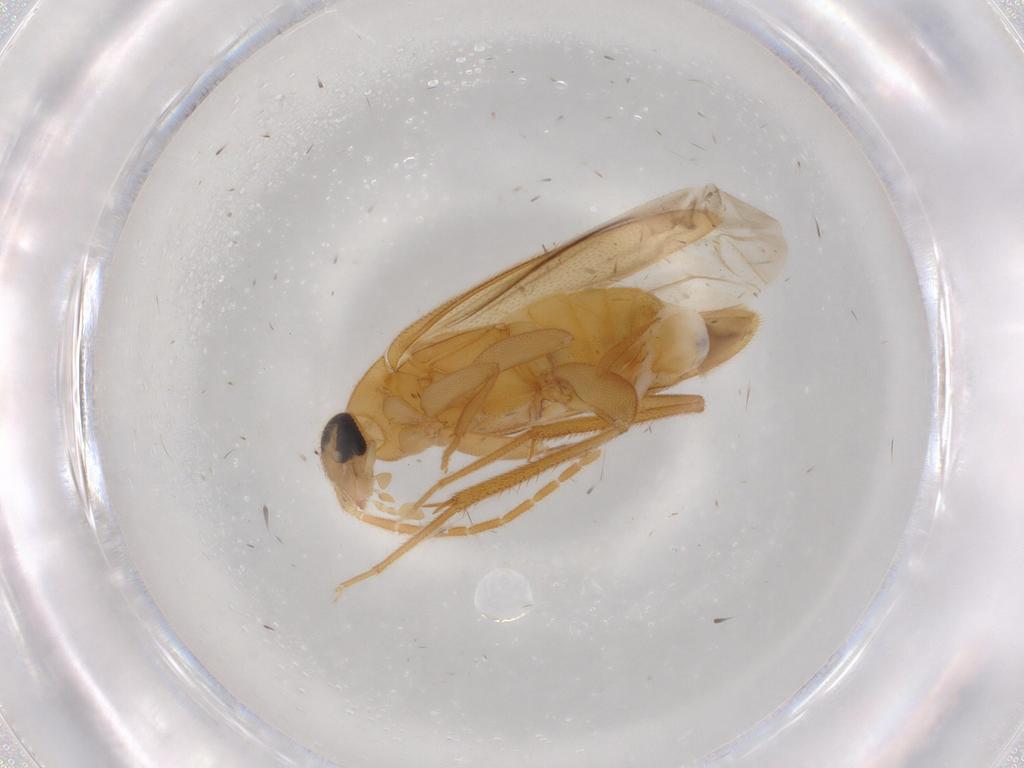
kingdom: Animalia
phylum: Arthropoda
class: Insecta
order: Coleoptera
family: Scraptiidae
